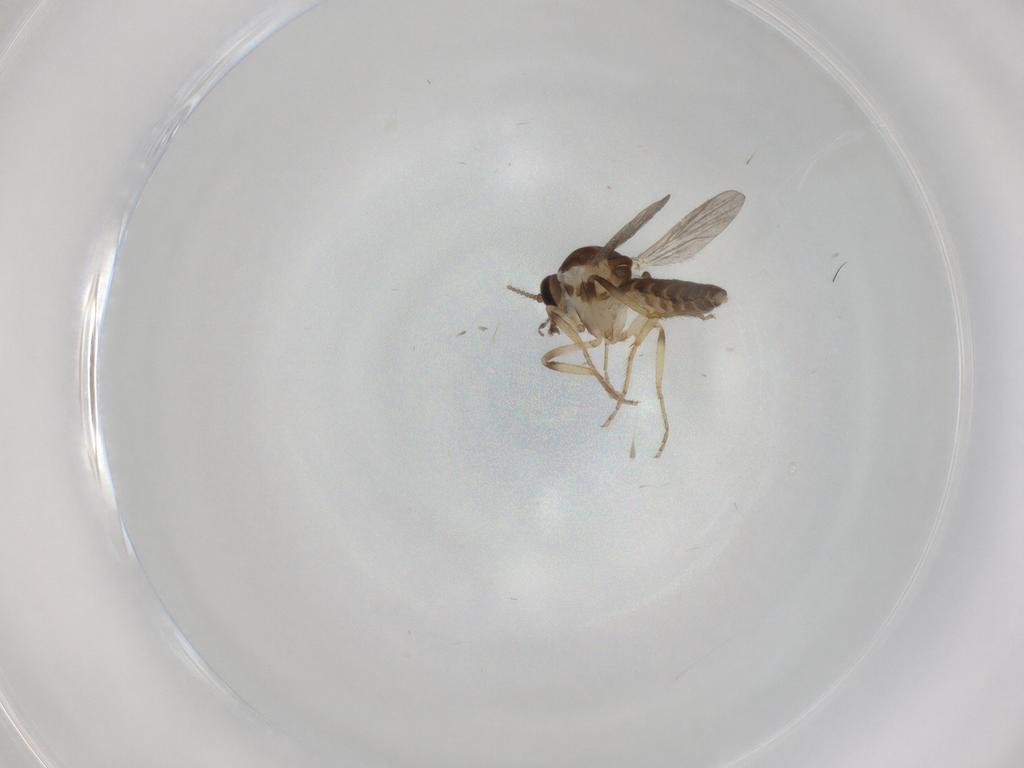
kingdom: Animalia
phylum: Arthropoda
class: Insecta
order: Diptera
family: Ceratopogonidae
